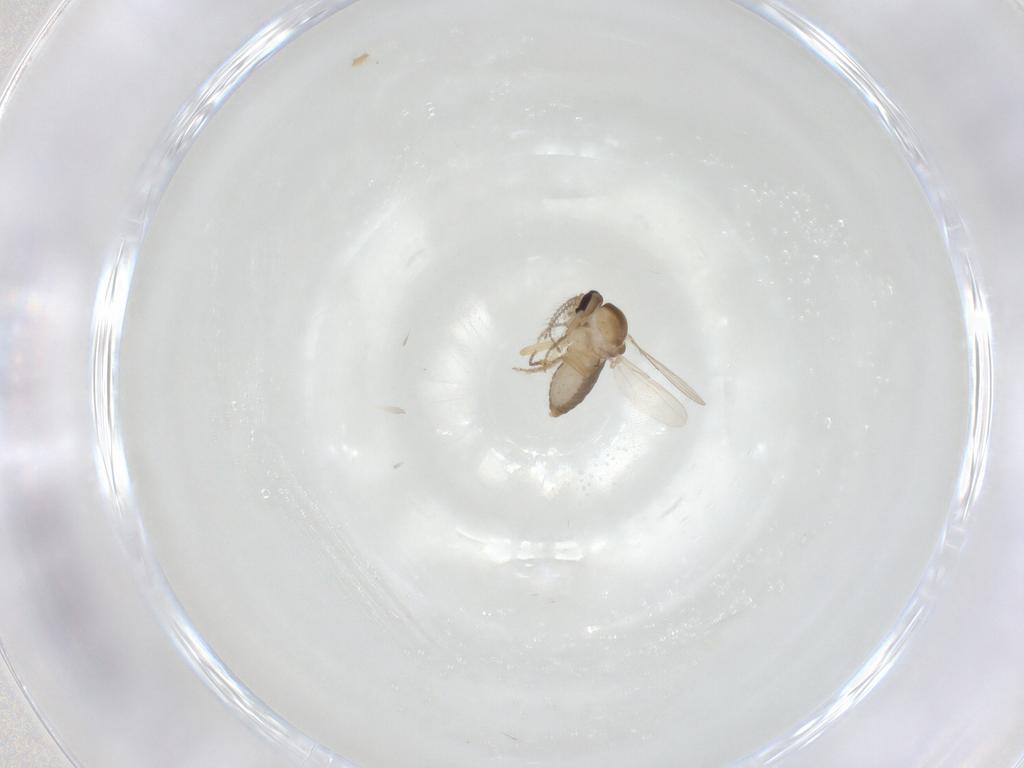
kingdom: Animalia
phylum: Arthropoda
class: Insecta
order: Diptera
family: Ceratopogonidae
